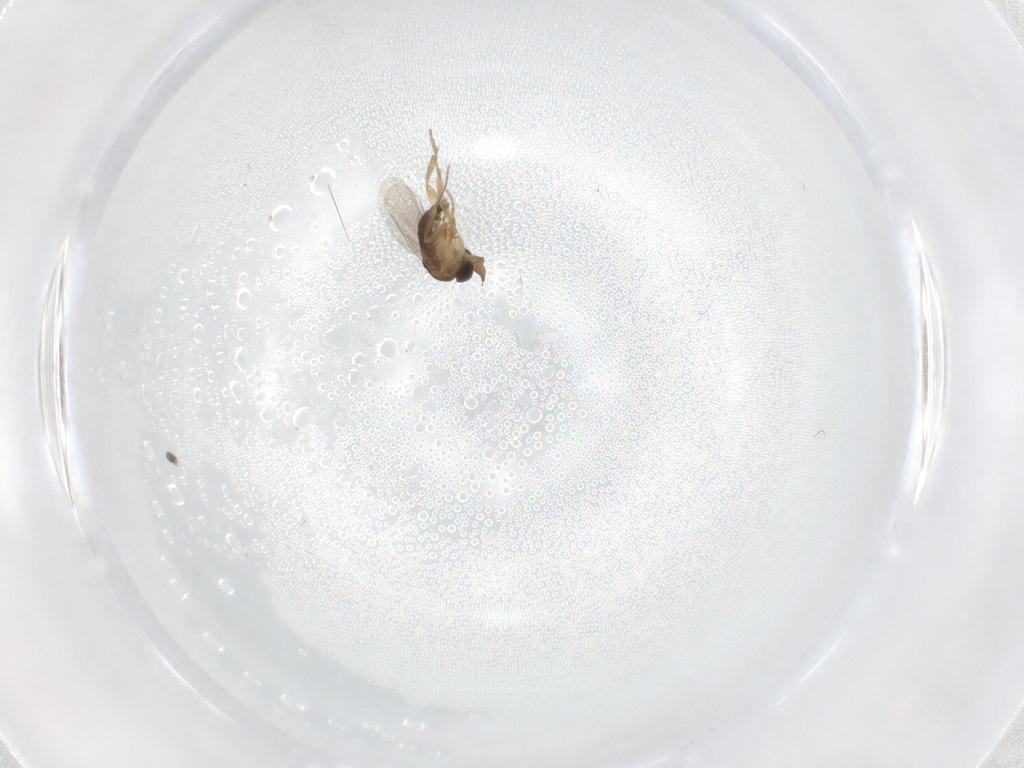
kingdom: Animalia
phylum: Arthropoda
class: Insecta
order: Diptera
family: Phoridae
